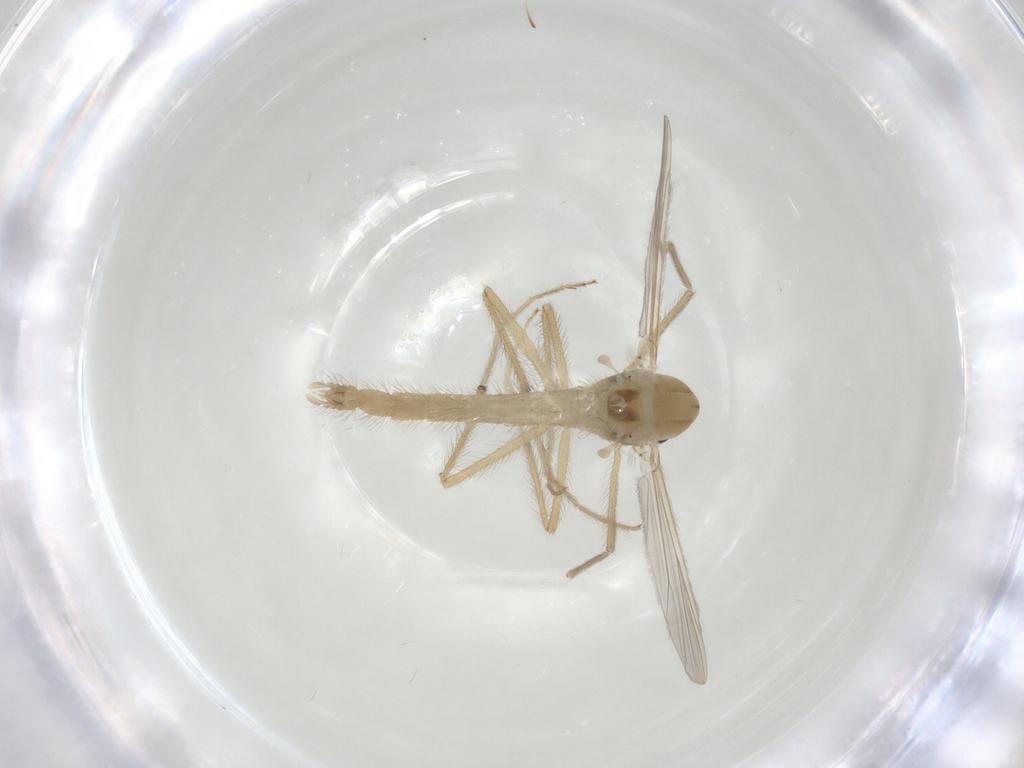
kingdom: Animalia
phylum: Arthropoda
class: Insecta
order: Diptera
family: Chironomidae
